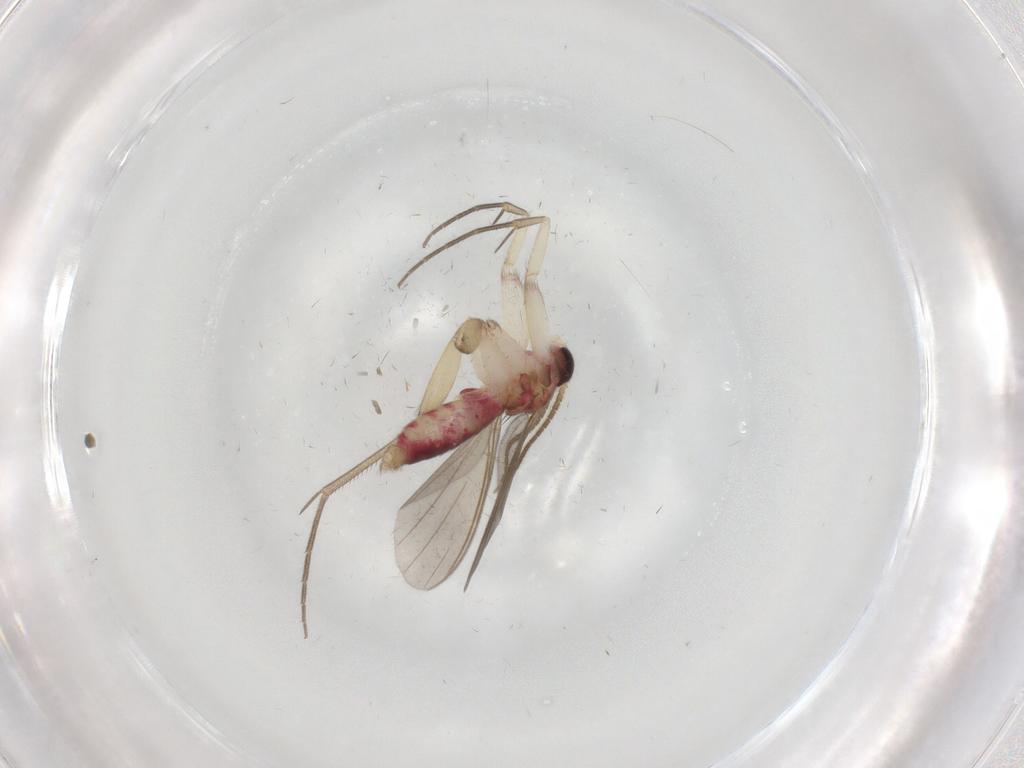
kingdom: Animalia
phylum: Arthropoda
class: Insecta
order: Diptera
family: Mycetophilidae
